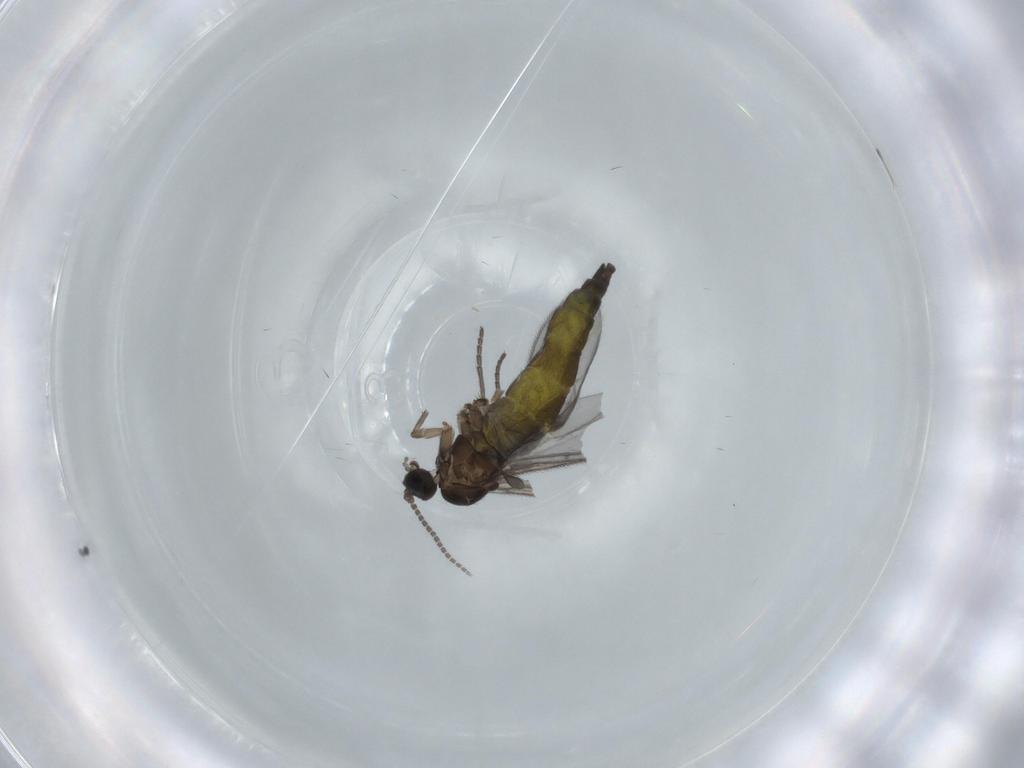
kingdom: Animalia
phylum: Arthropoda
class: Insecta
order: Diptera
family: Sciaridae
